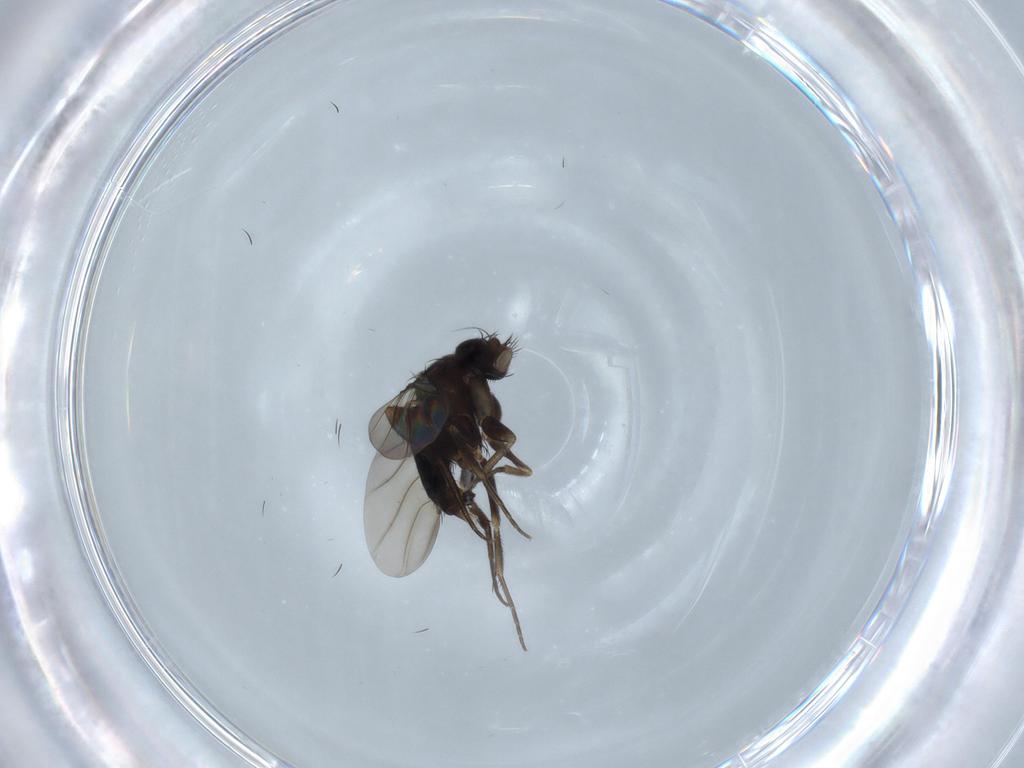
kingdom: Animalia
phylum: Arthropoda
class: Insecta
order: Diptera
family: Phoridae
